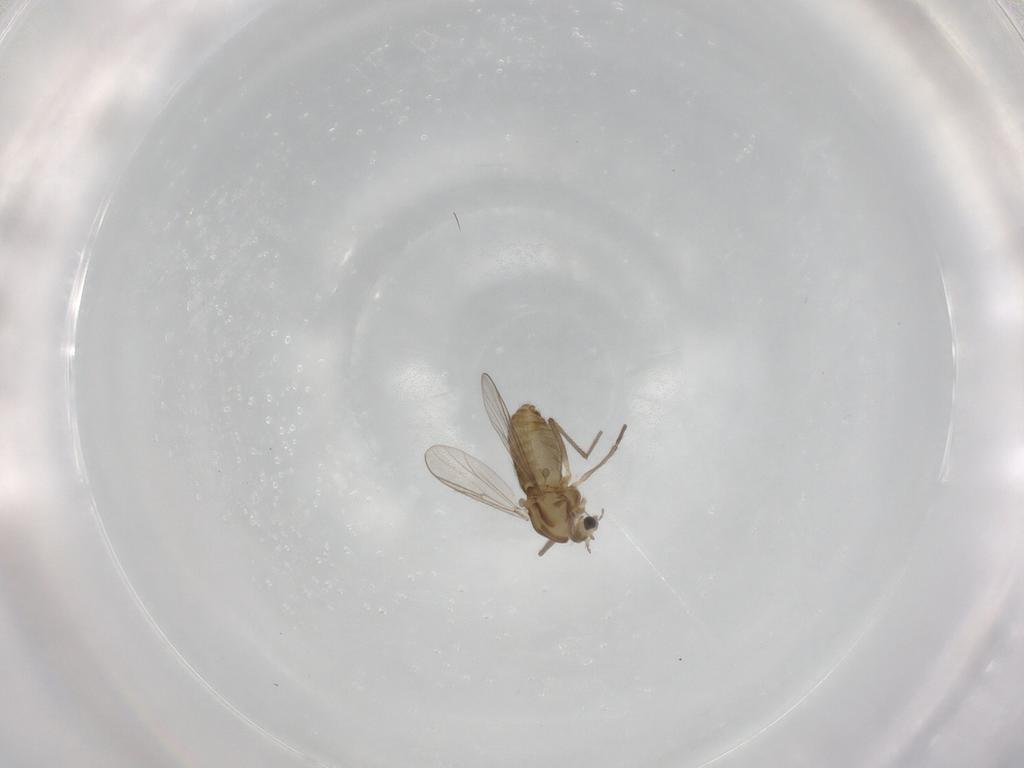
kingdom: Animalia
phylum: Arthropoda
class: Insecta
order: Diptera
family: Chironomidae
